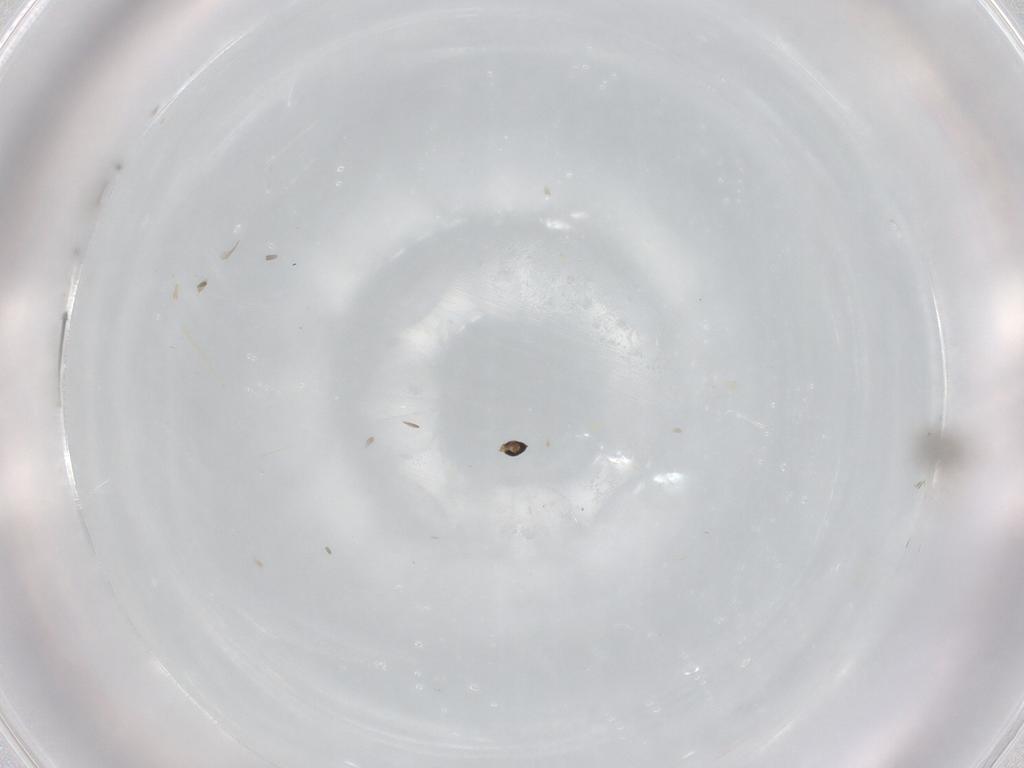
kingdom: Animalia
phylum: Arthropoda
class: Insecta
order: Diptera
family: Cecidomyiidae
